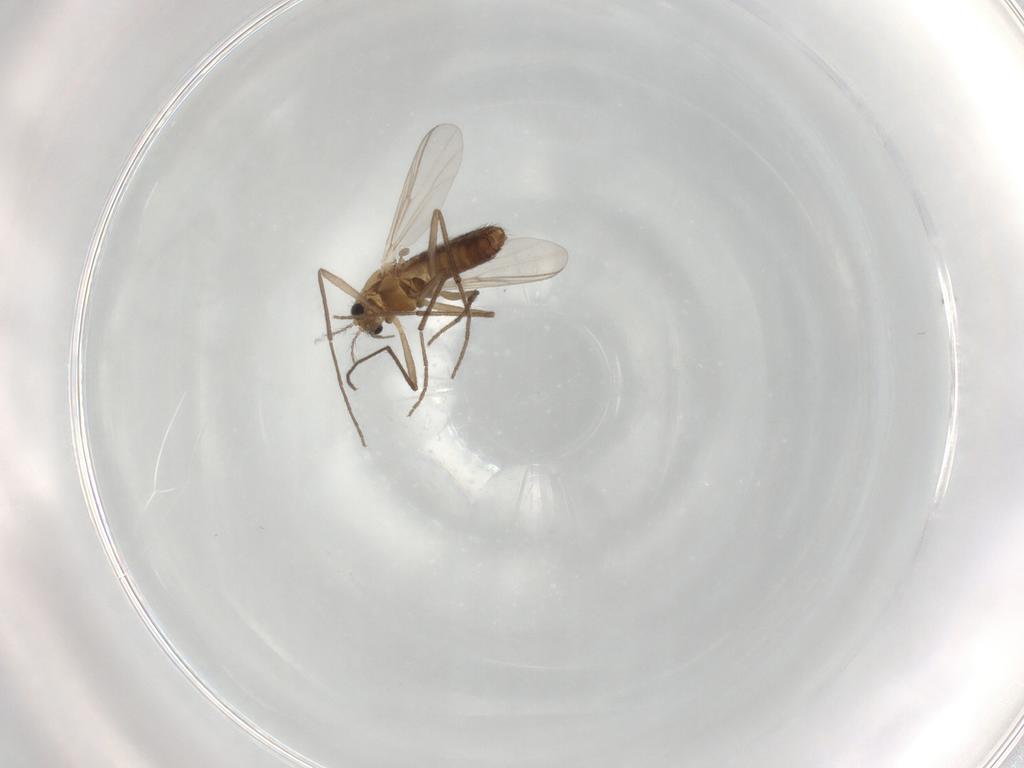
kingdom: Animalia
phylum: Arthropoda
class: Insecta
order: Diptera
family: Chironomidae
